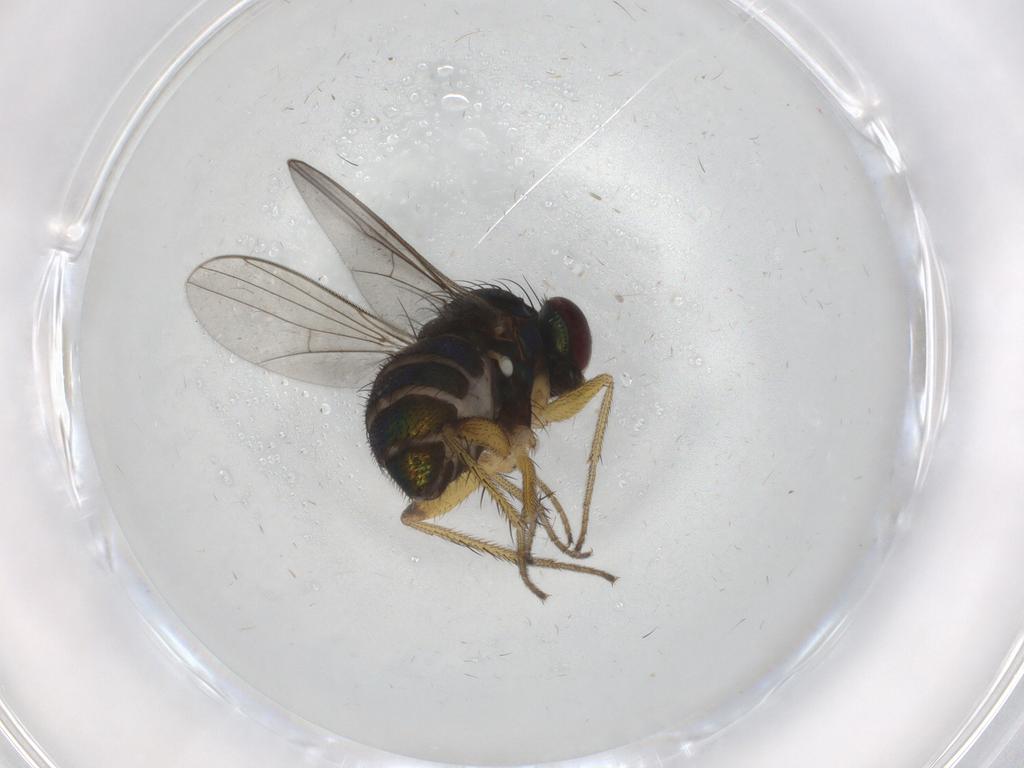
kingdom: Animalia
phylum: Arthropoda
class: Insecta
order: Diptera
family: Dolichopodidae
